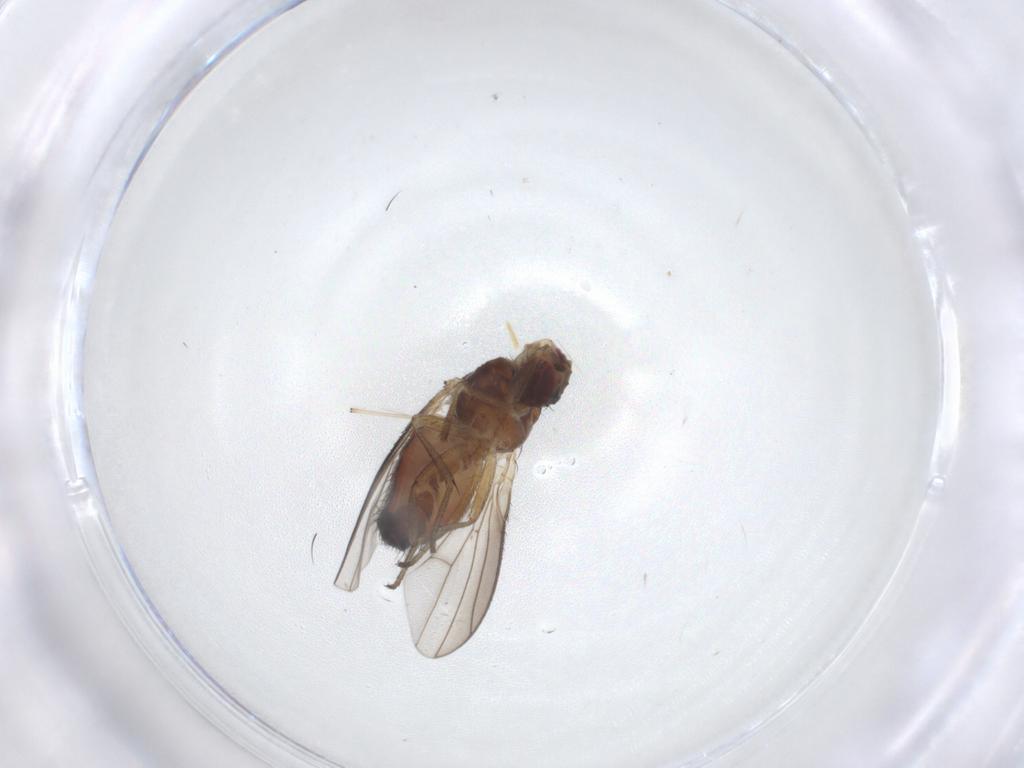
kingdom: Animalia
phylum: Arthropoda
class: Insecta
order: Diptera
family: Heleomyzidae
